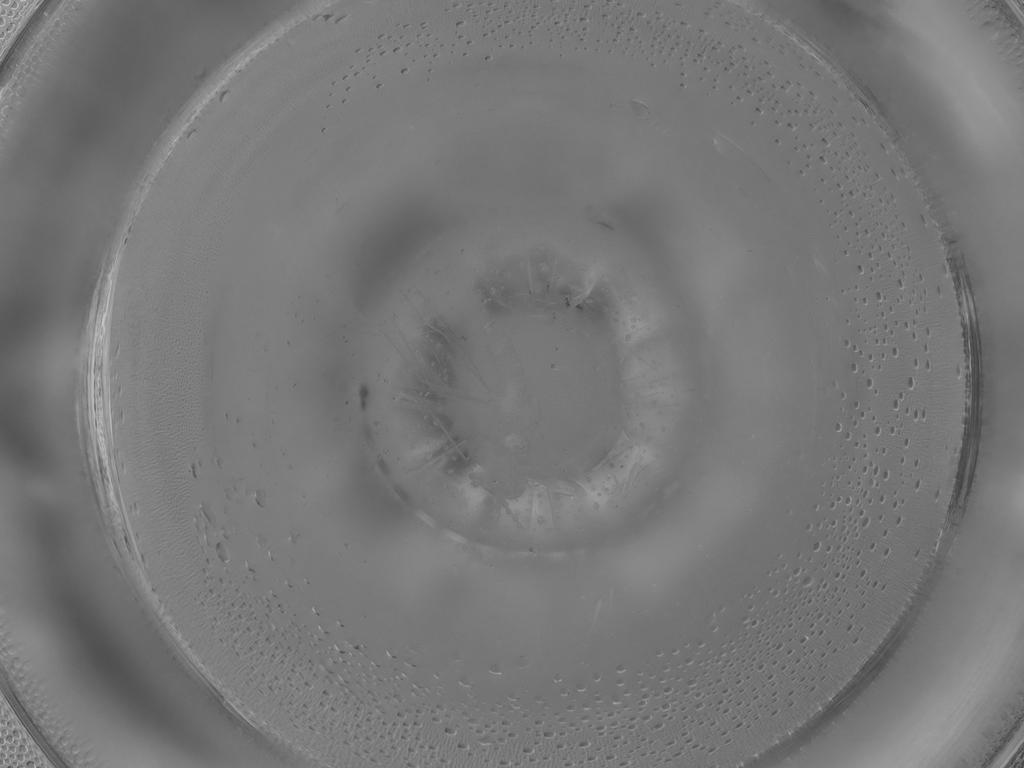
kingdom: Animalia
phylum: Arthropoda
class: Insecta
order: Diptera
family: Cecidomyiidae
